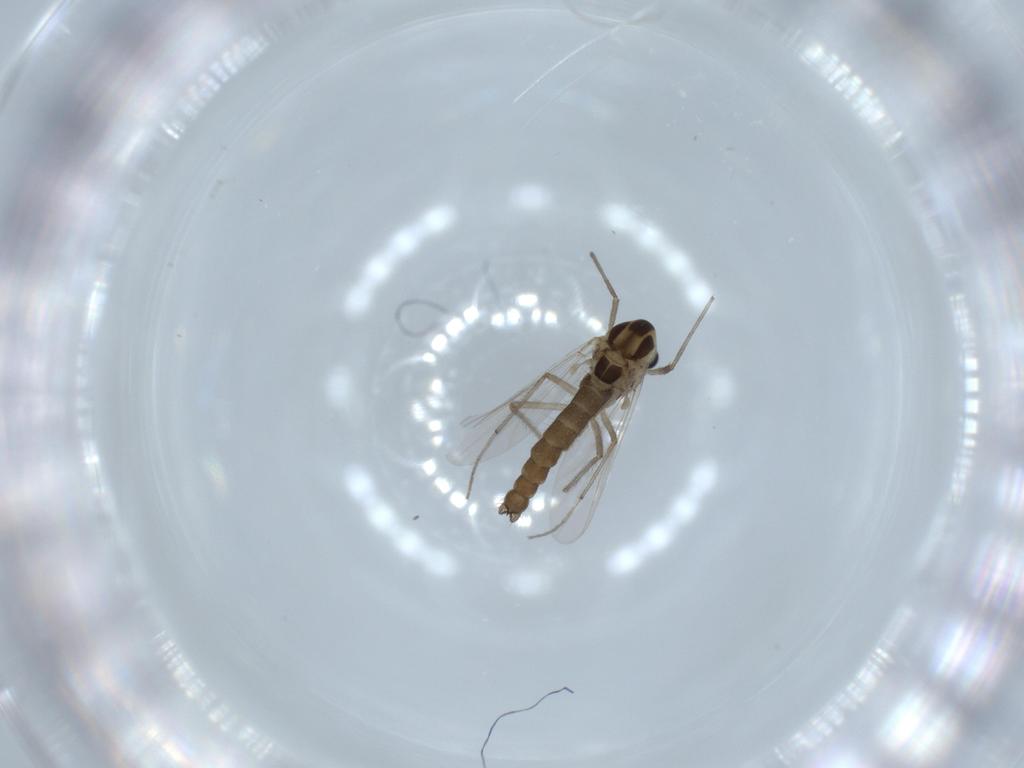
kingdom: Animalia
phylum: Arthropoda
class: Insecta
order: Diptera
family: Chironomidae
